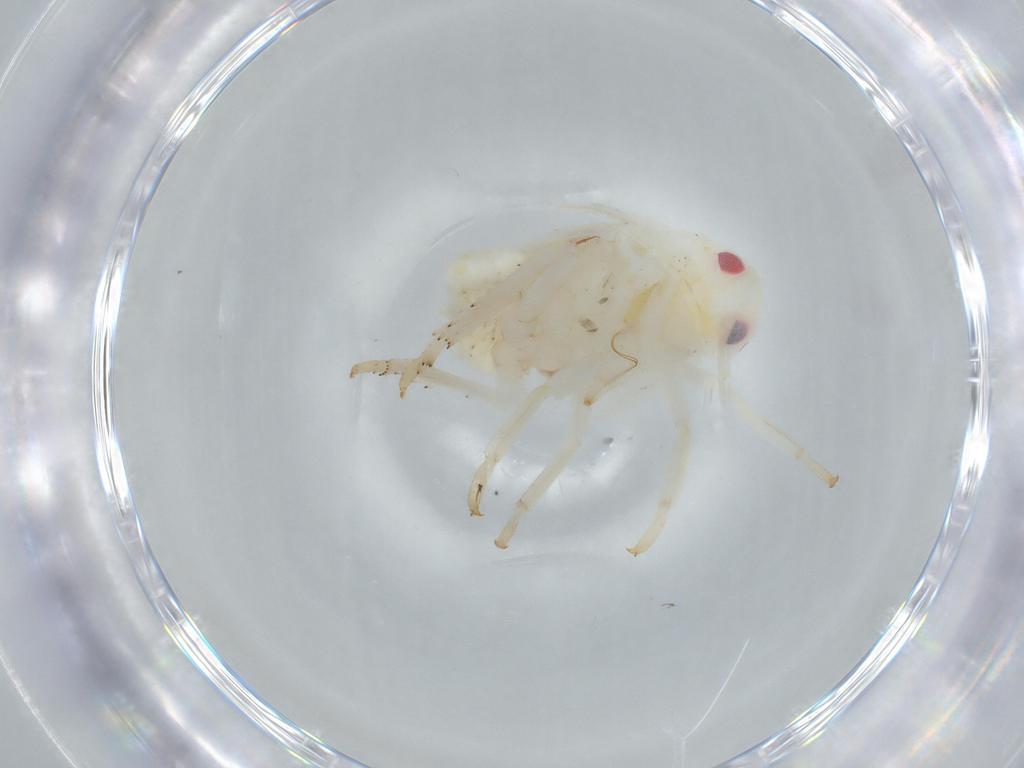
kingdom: Animalia
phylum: Arthropoda
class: Insecta
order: Hemiptera
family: Flatidae
